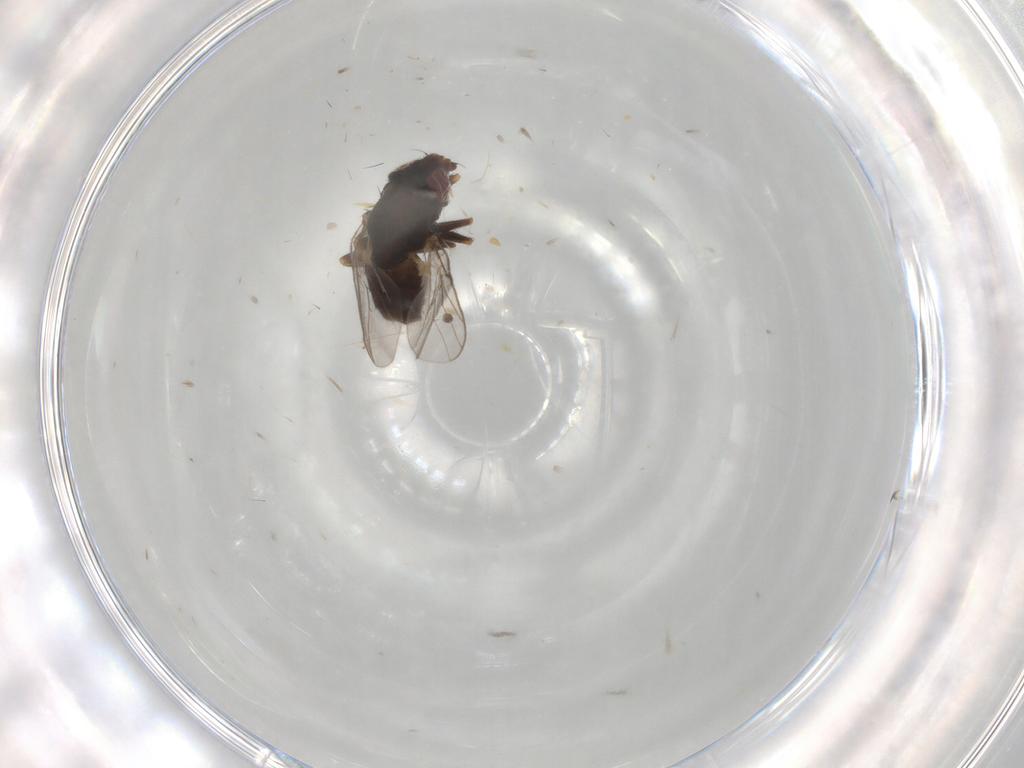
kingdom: Animalia
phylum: Arthropoda
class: Insecta
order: Diptera
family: Chloropidae
